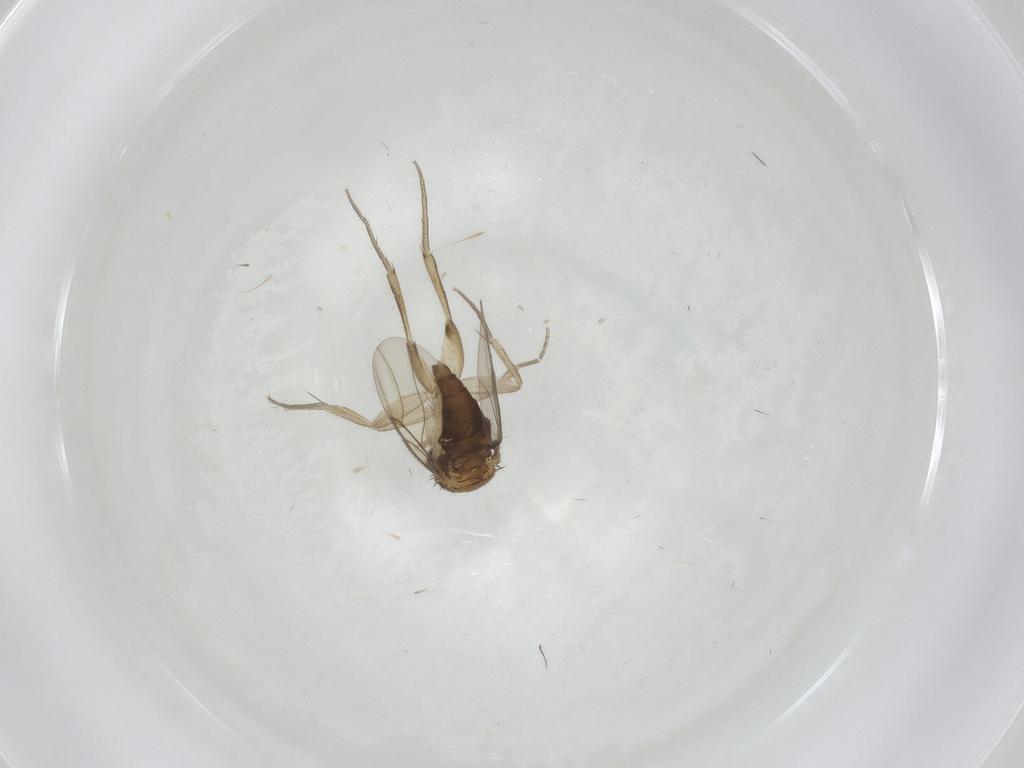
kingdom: Animalia
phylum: Arthropoda
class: Insecta
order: Diptera
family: Phoridae
